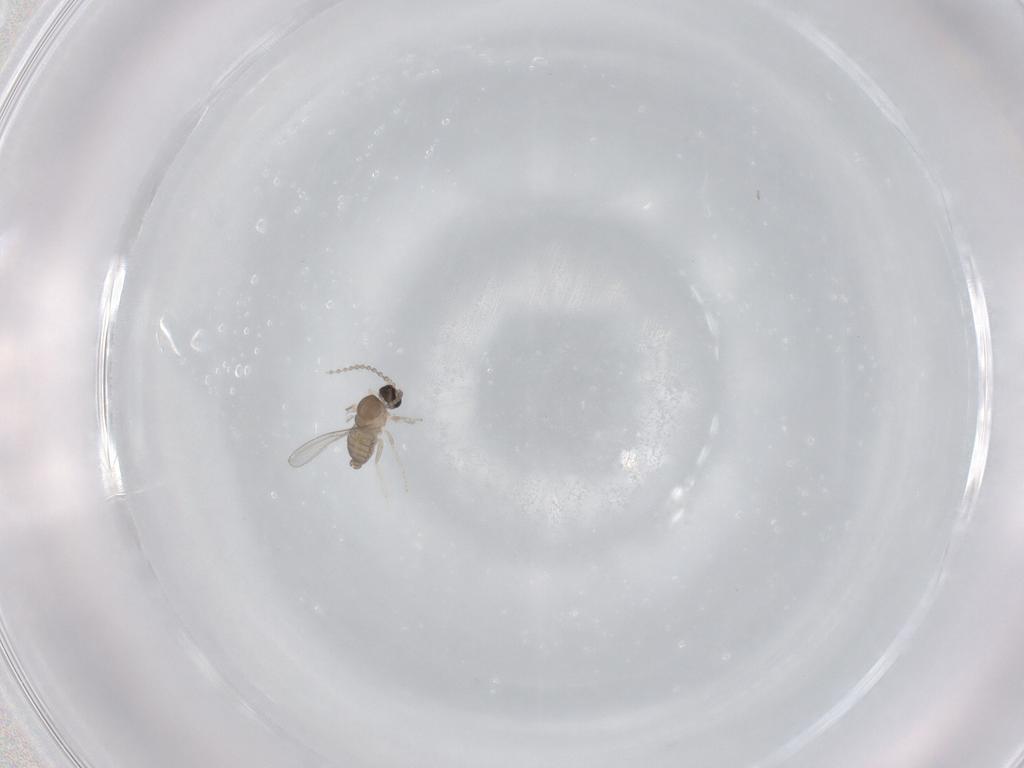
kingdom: Animalia
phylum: Arthropoda
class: Insecta
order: Diptera
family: Cecidomyiidae
